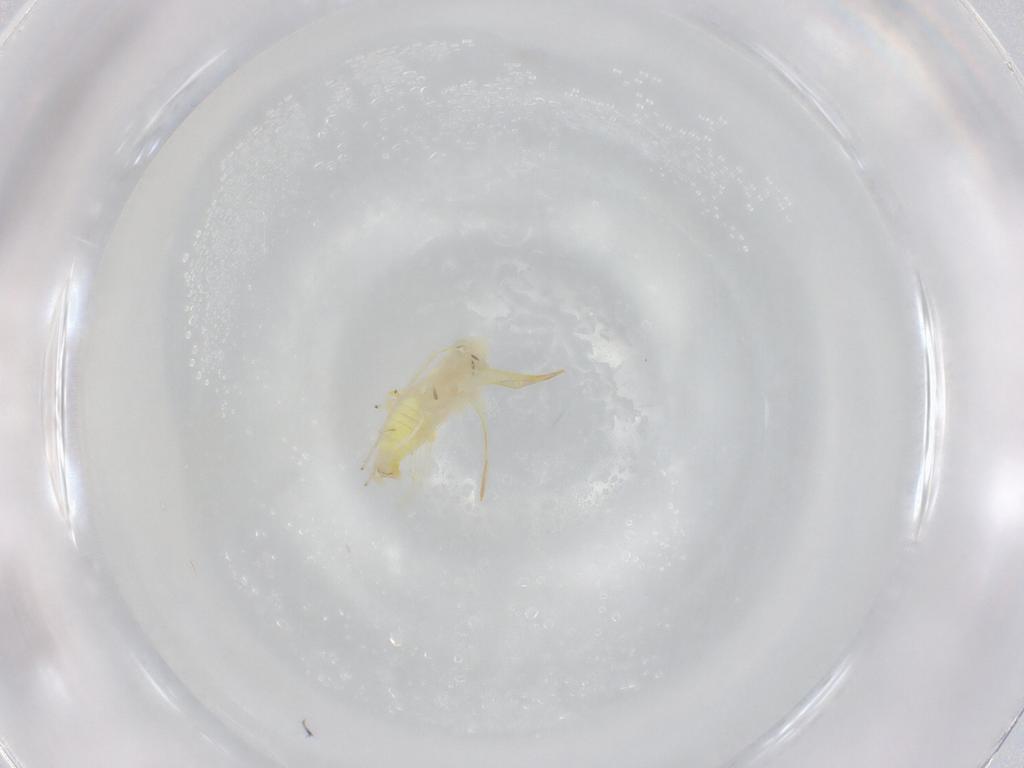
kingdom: Animalia
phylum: Arthropoda
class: Insecta
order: Hemiptera
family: Cicadellidae
